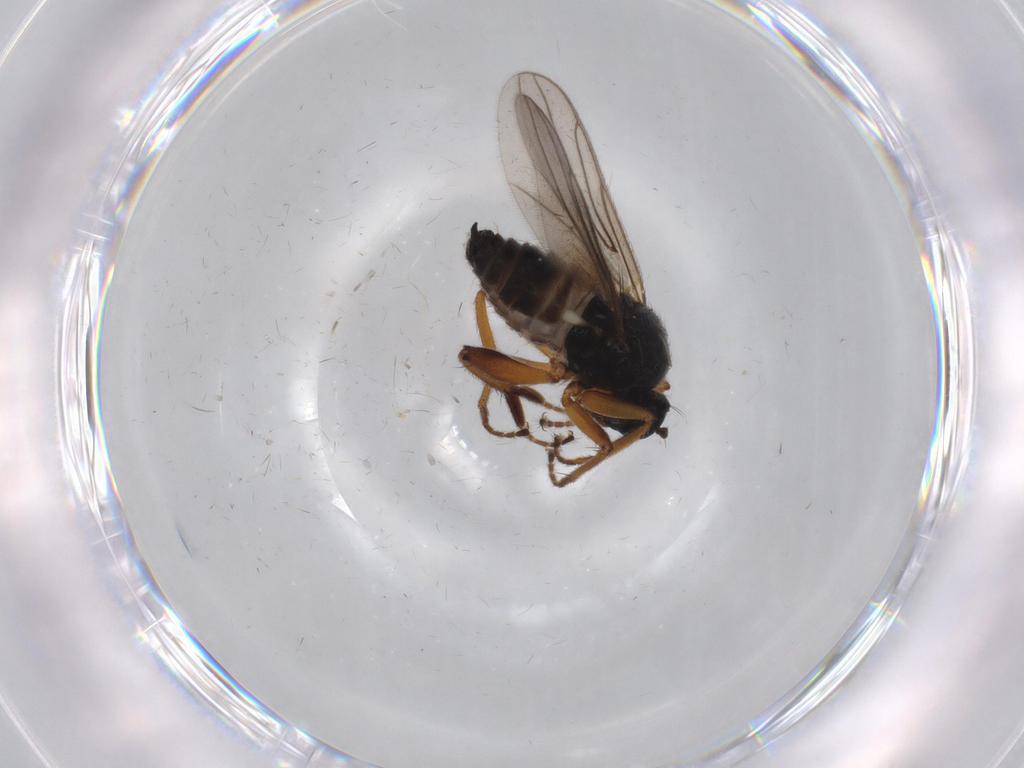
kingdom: Animalia
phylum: Arthropoda
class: Insecta
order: Diptera
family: Hybotidae
